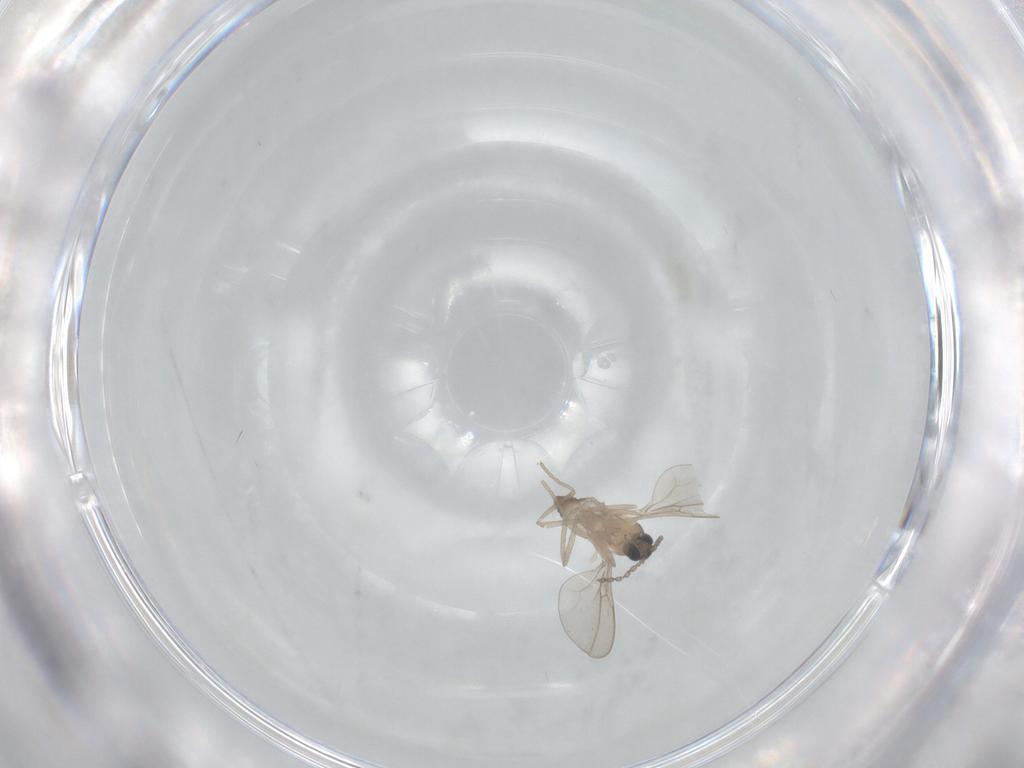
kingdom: Animalia
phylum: Arthropoda
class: Insecta
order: Diptera
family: Cecidomyiidae
